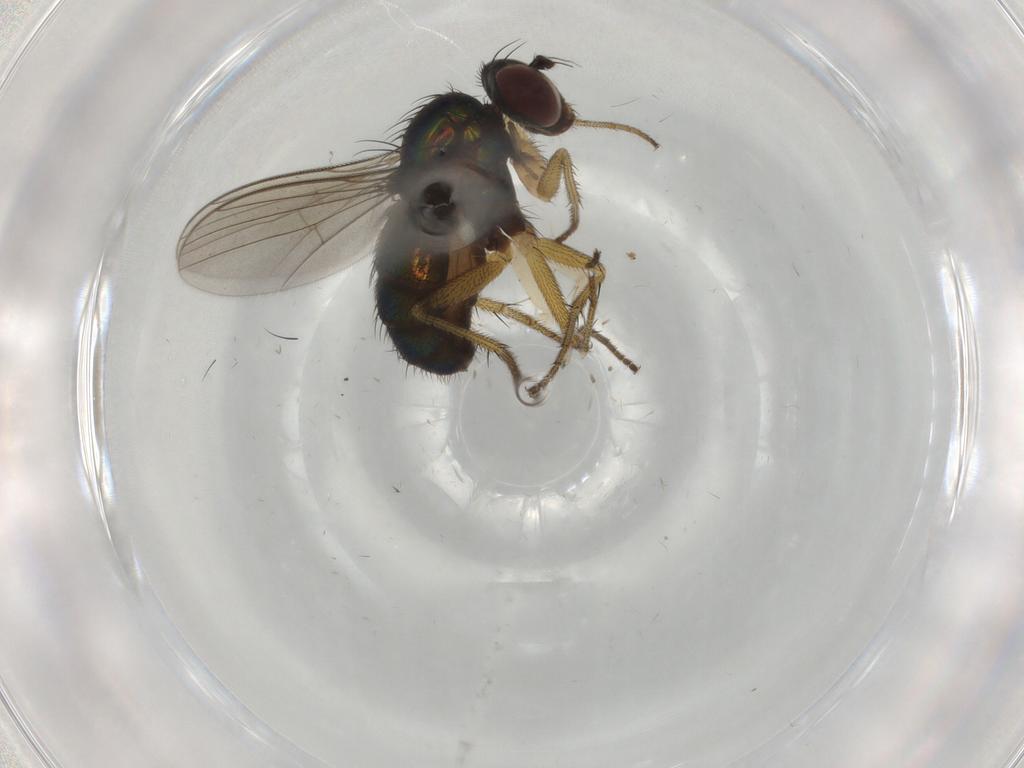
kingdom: Animalia
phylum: Arthropoda
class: Insecta
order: Diptera
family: Dolichopodidae
